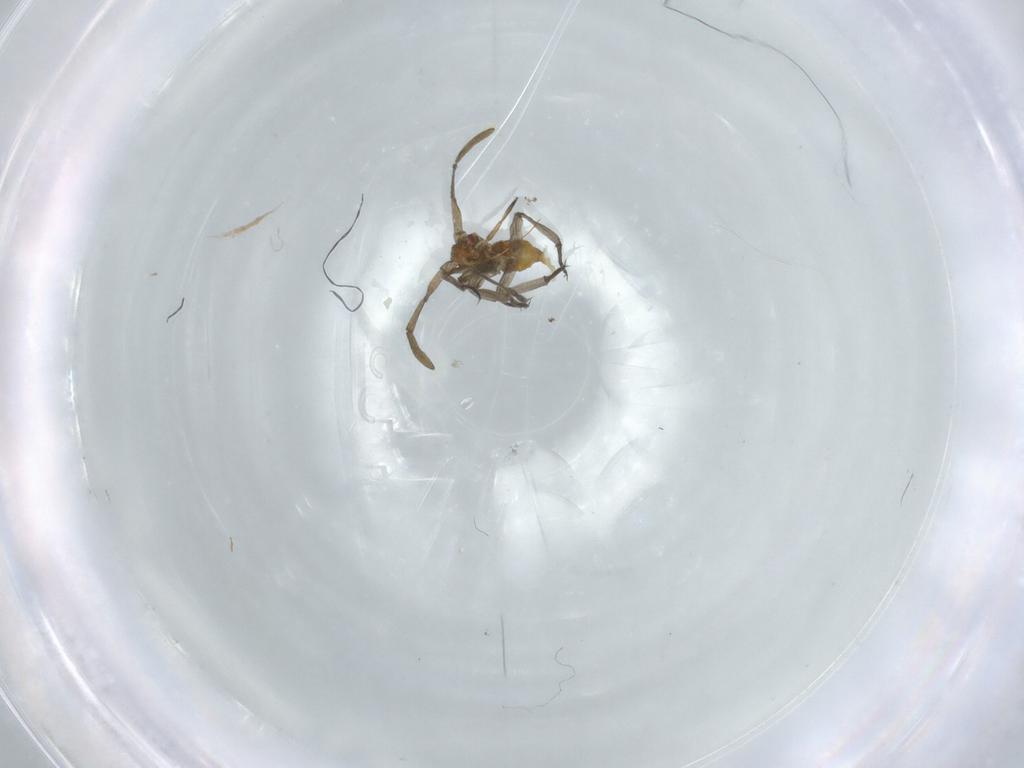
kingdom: Animalia
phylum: Arthropoda
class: Insecta
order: Hemiptera
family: Miridae
